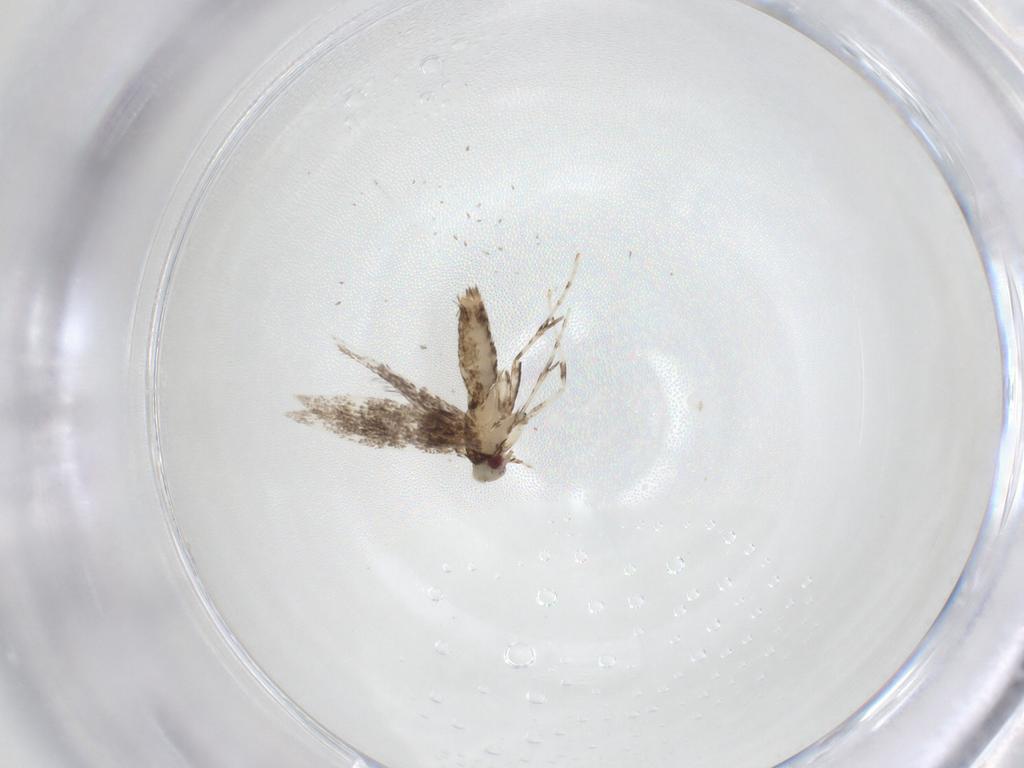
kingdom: Animalia
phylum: Arthropoda
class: Insecta
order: Lepidoptera
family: Gracillariidae
